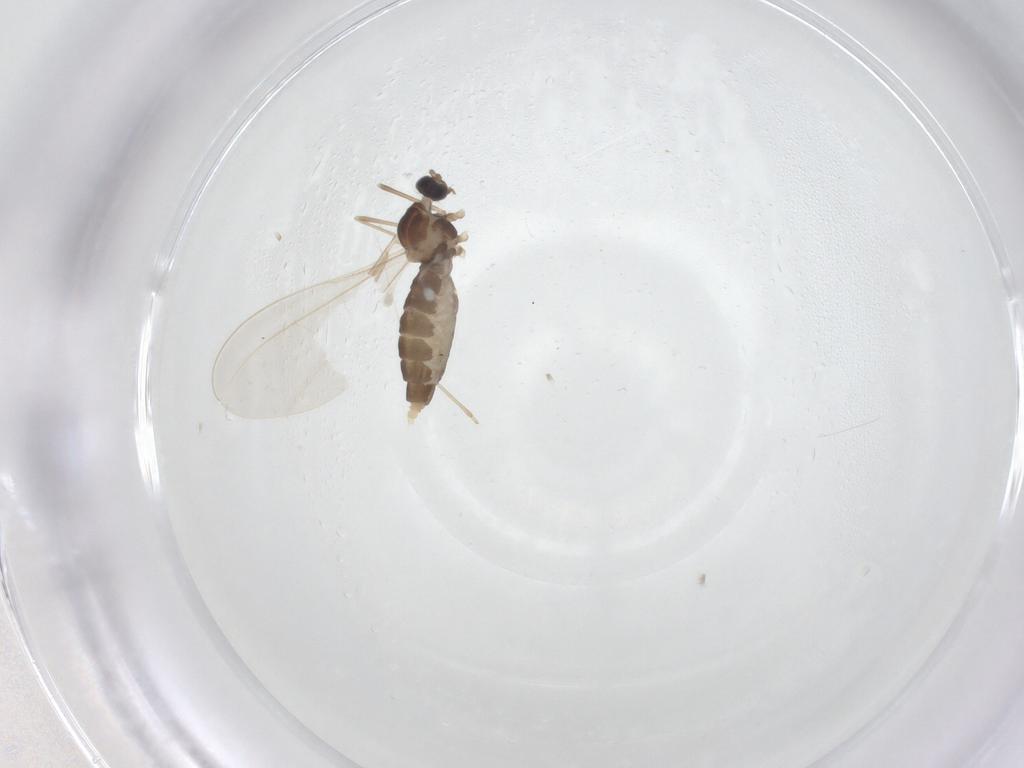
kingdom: Animalia
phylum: Arthropoda
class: Insecta
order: Diptera
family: Cecidomyiidae
